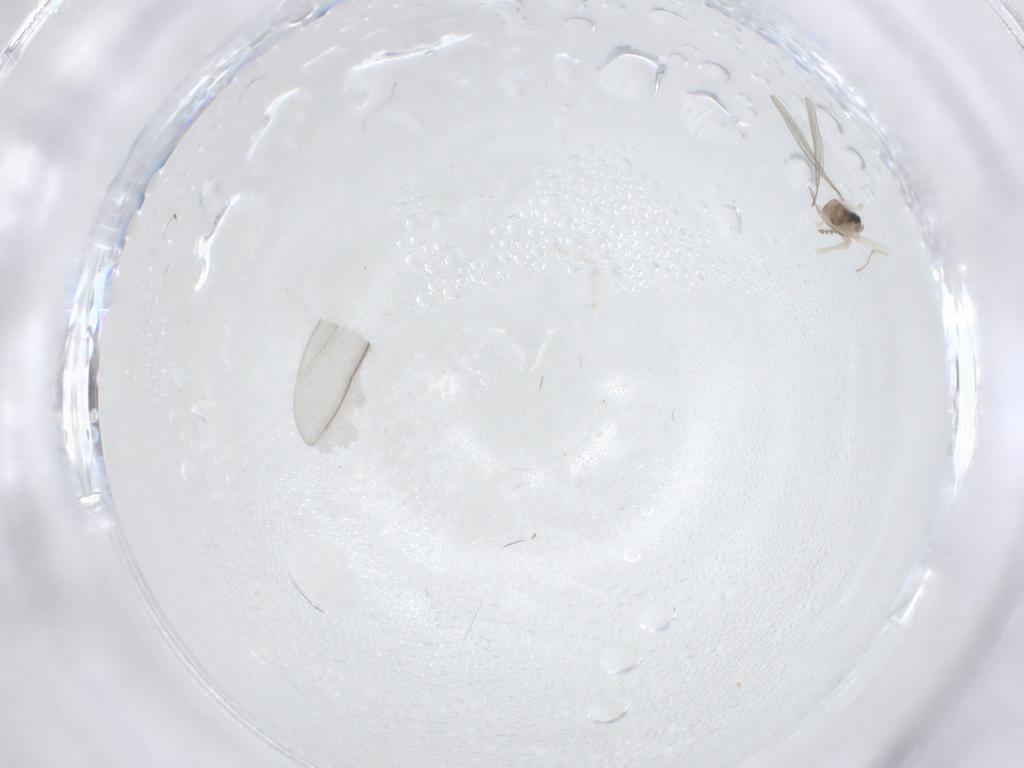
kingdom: Animalia
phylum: Arthropoda
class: Insecta
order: Diptera
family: Cecidomyiidae
